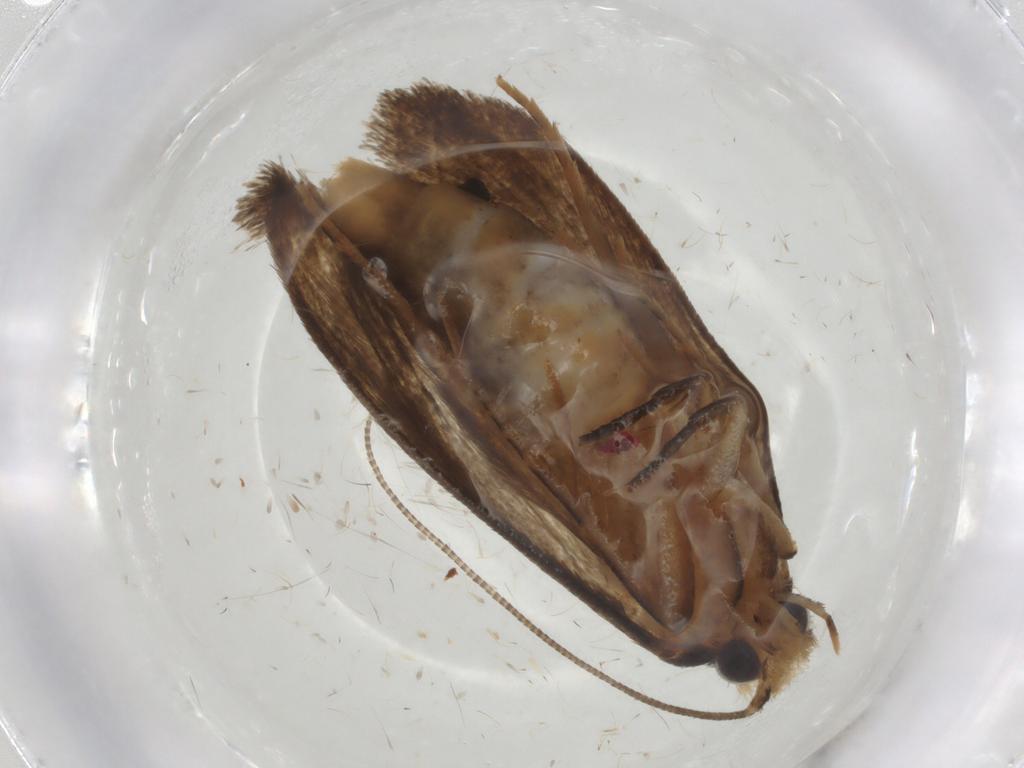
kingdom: Animalia
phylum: Arthropoda
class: Insecta
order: Lepidoptera
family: Tineidae
